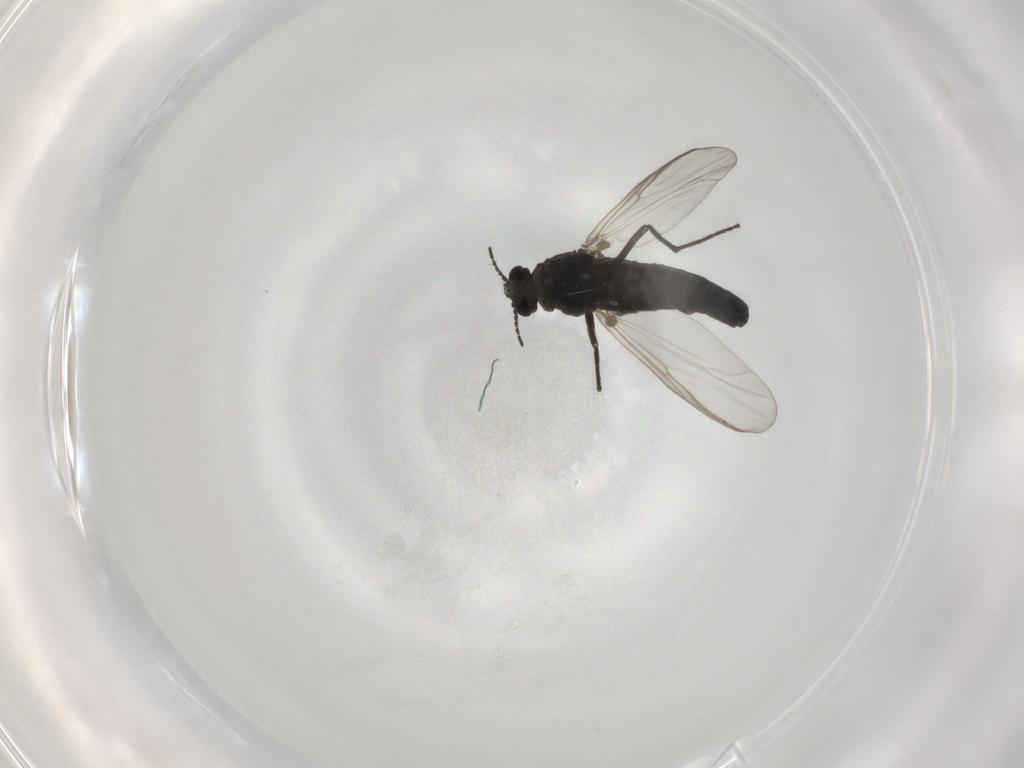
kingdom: Animalia
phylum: Arthropoda
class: Insecta
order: Diptera
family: Chironomidae
